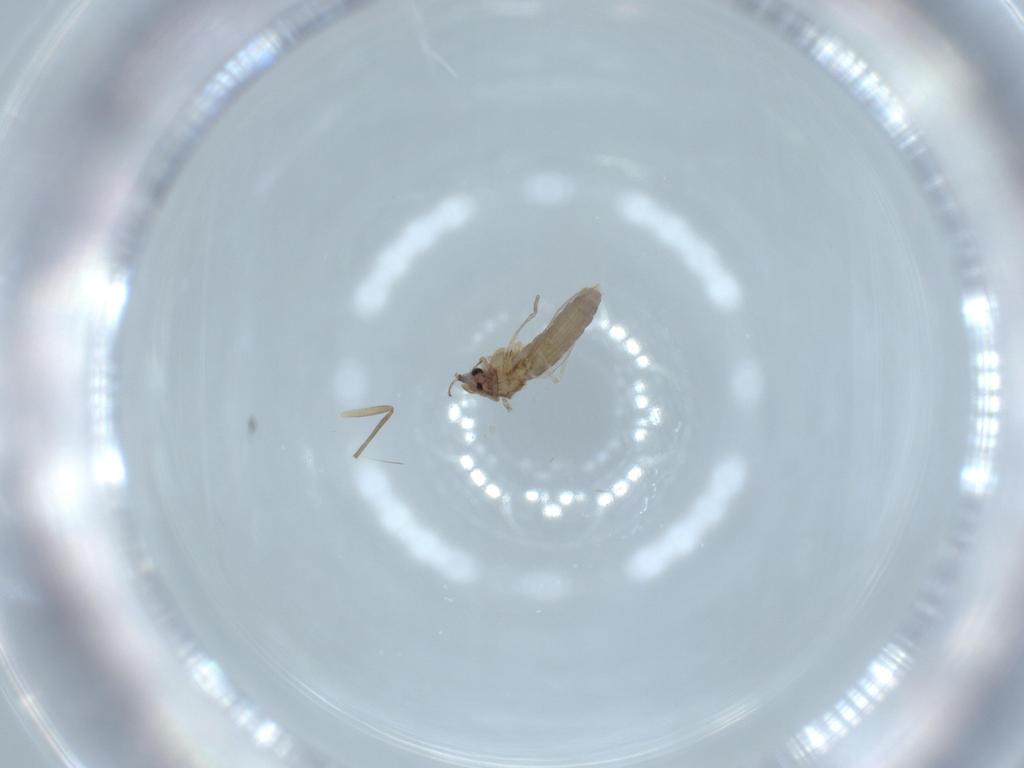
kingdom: Animalia
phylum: Arthropoda
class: Insecta
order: Diptera
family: Chironomidae
